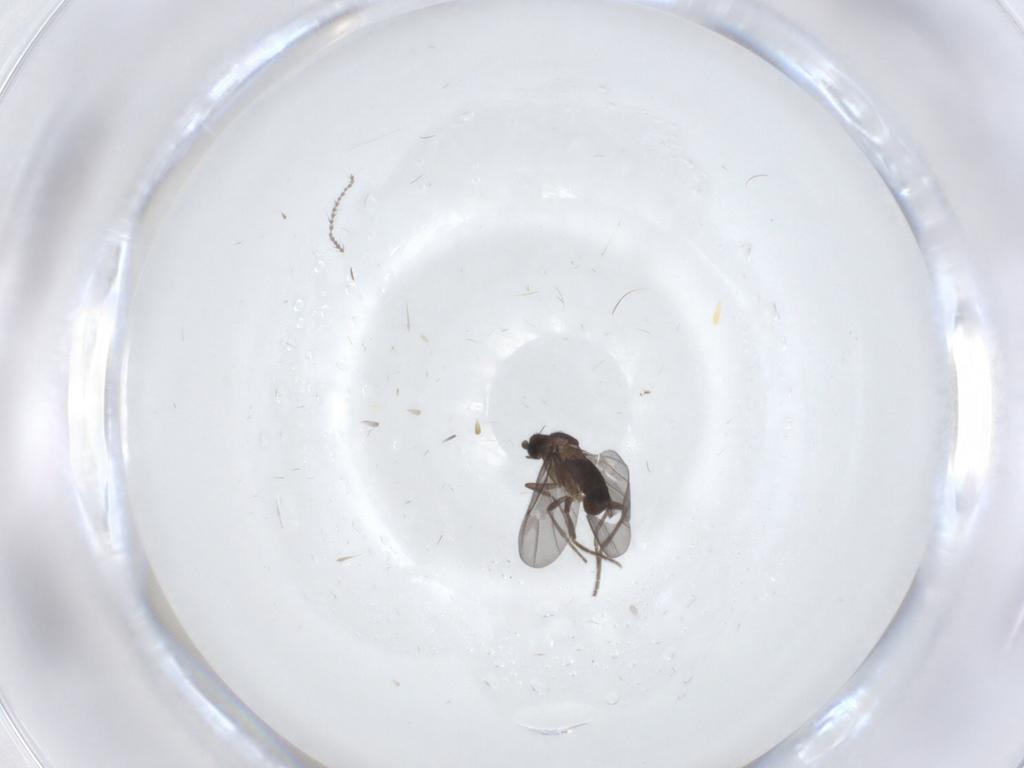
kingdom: Animalia
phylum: Arthropoda
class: Insecta
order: Diptera
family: Phoridae
